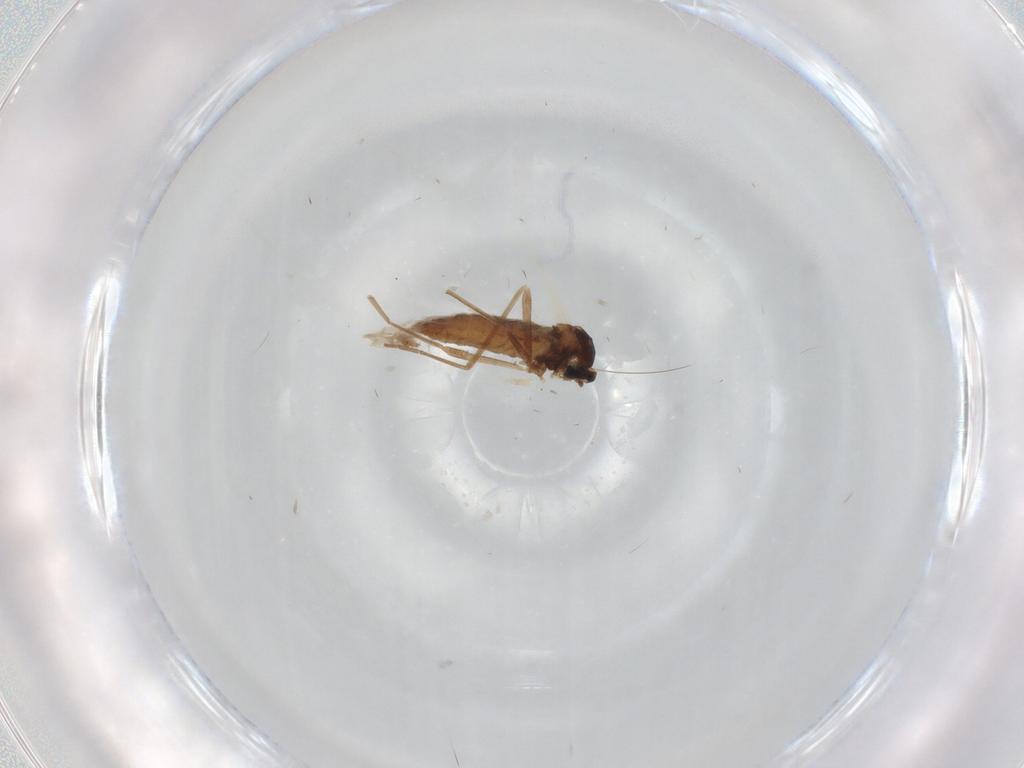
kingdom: Animalia
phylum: Arthropoda
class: Insecta
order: Diptera
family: Cecidomyiidae
